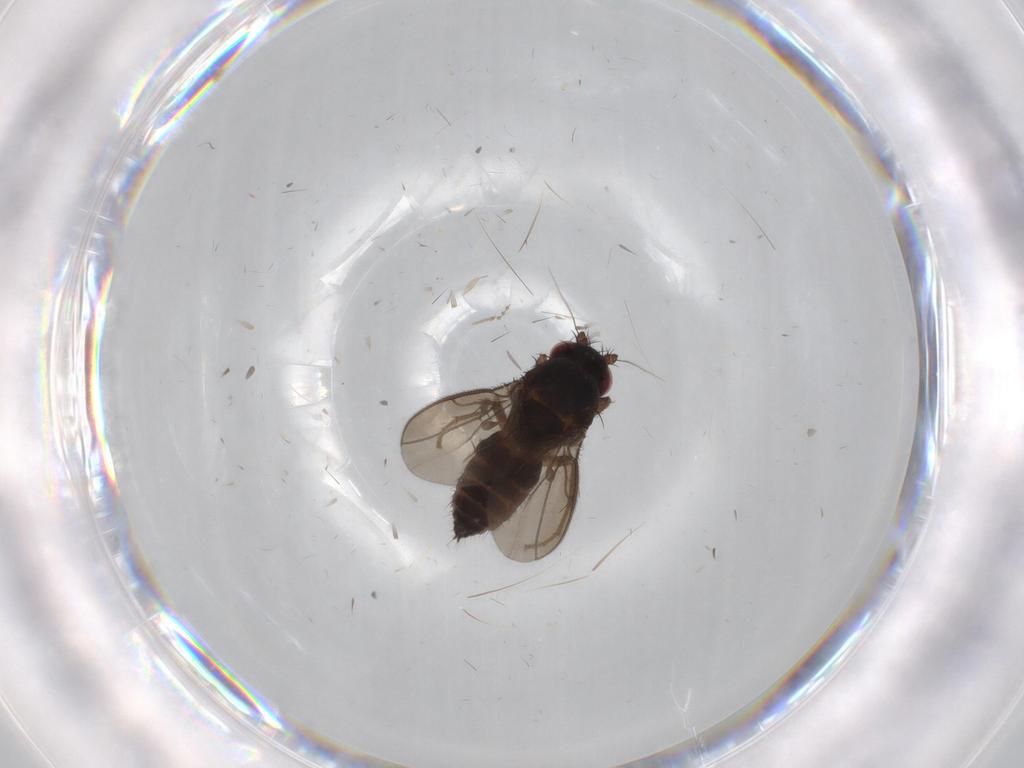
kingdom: Animalia
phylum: Arthropoda
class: Insecta
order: Diptera
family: Cecidomyiidae
